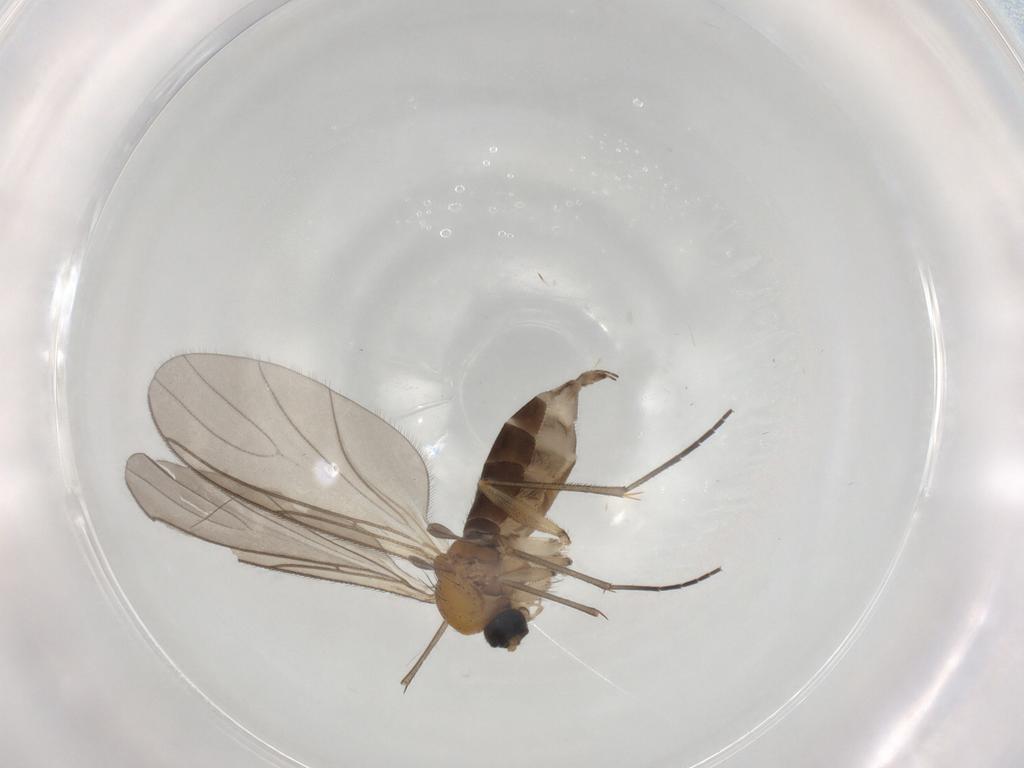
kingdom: Animalia
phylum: Arthropoda
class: Insecta
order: Diptera
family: Sciaridae
